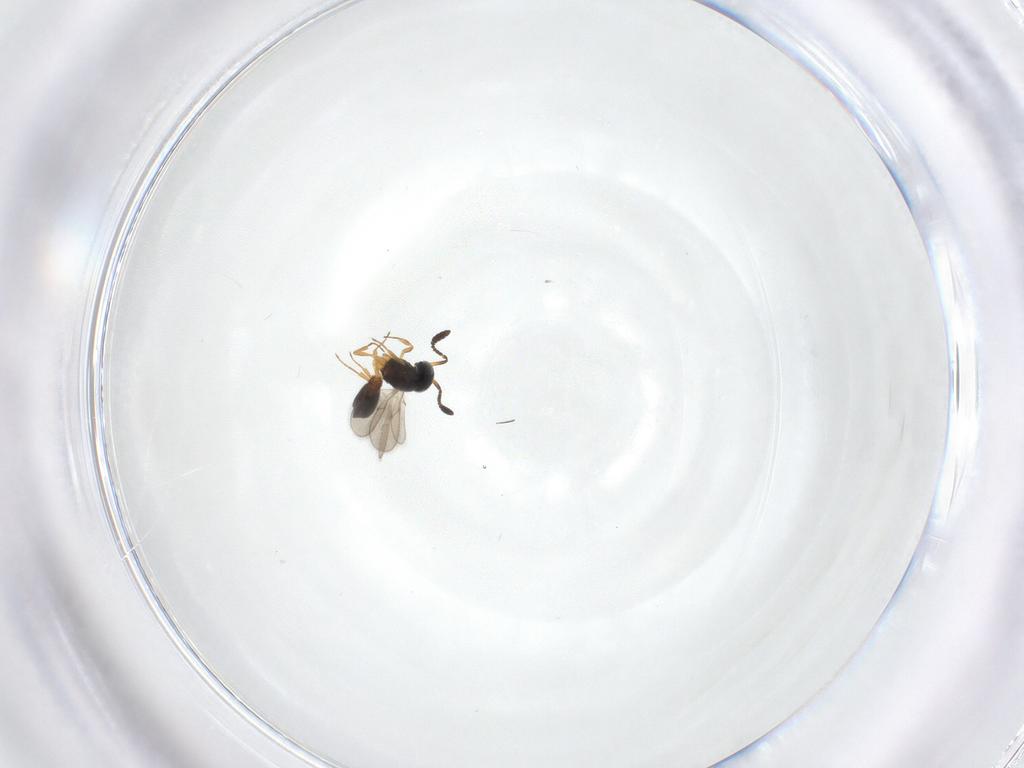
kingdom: Animalia
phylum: Arthropoda
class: Insecta
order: Hymenoptera
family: Scelionidae
